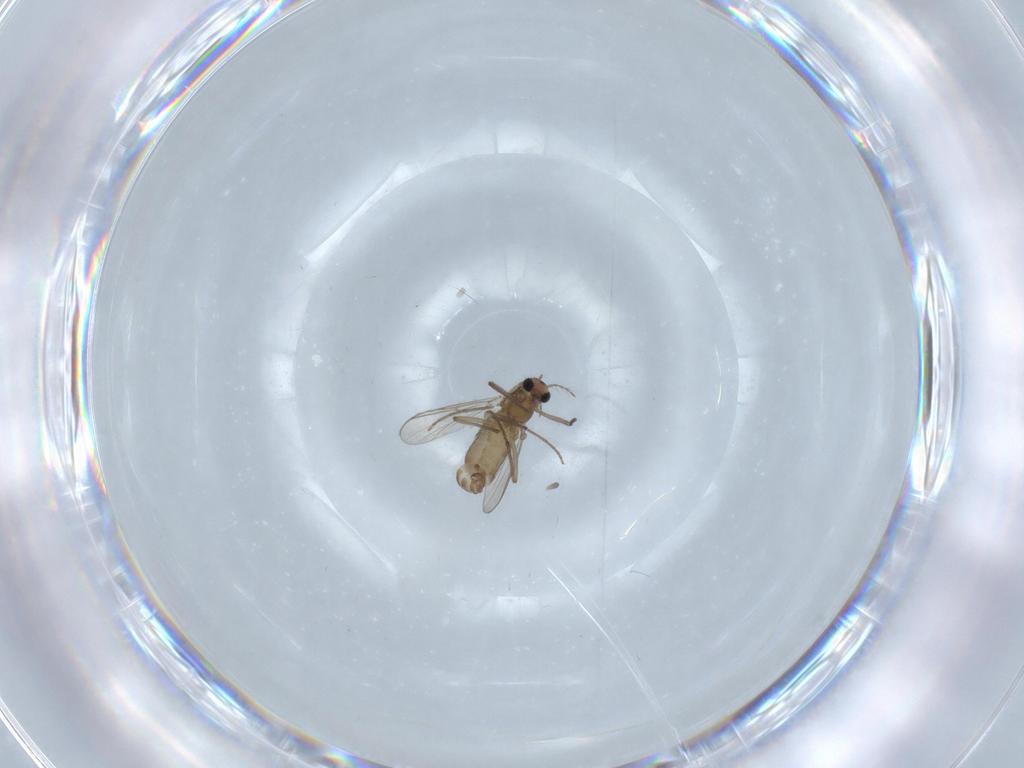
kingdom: Animalia
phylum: Arthropoda
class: Insecta
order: Diptera
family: Chironomidae
